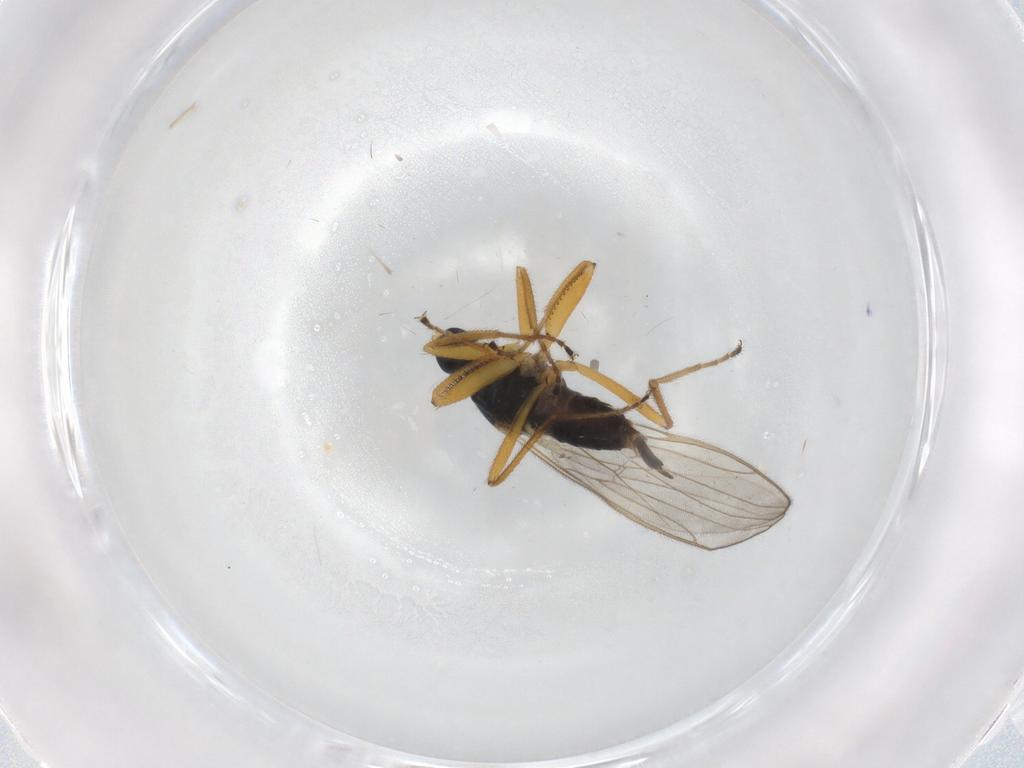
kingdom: Animalia
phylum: Arthropoda
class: Insecta
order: Diptera
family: Hybotidae
